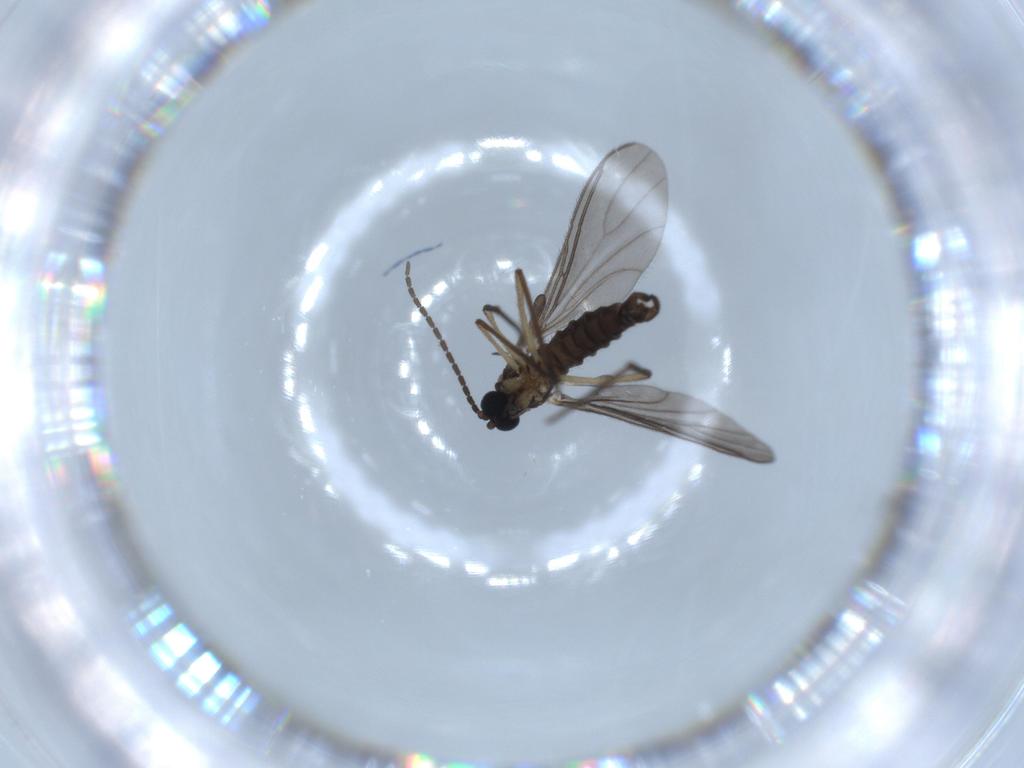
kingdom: Animalia
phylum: Arthropoda
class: Insecta
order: Diptera
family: Sciaridae
